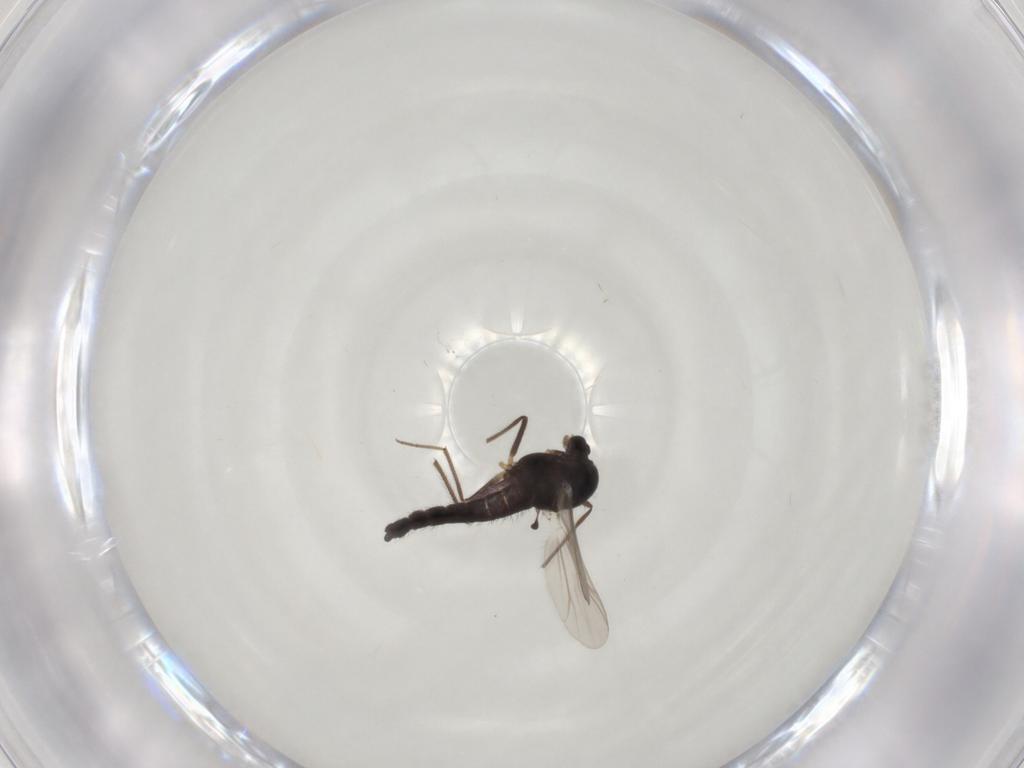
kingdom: Animalia
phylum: Arthropoda
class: Insecta
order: Diptera
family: Chironomidae
